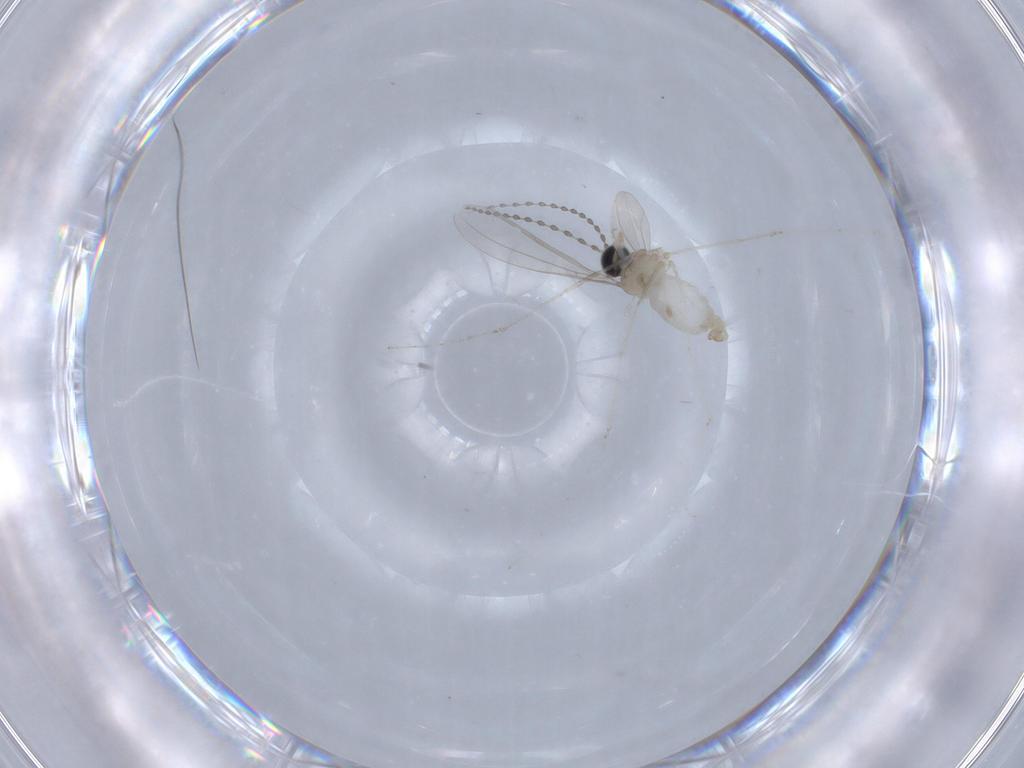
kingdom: Animalia
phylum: Arthropoda
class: Insecta
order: Diptera
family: Cecidomyiidae
